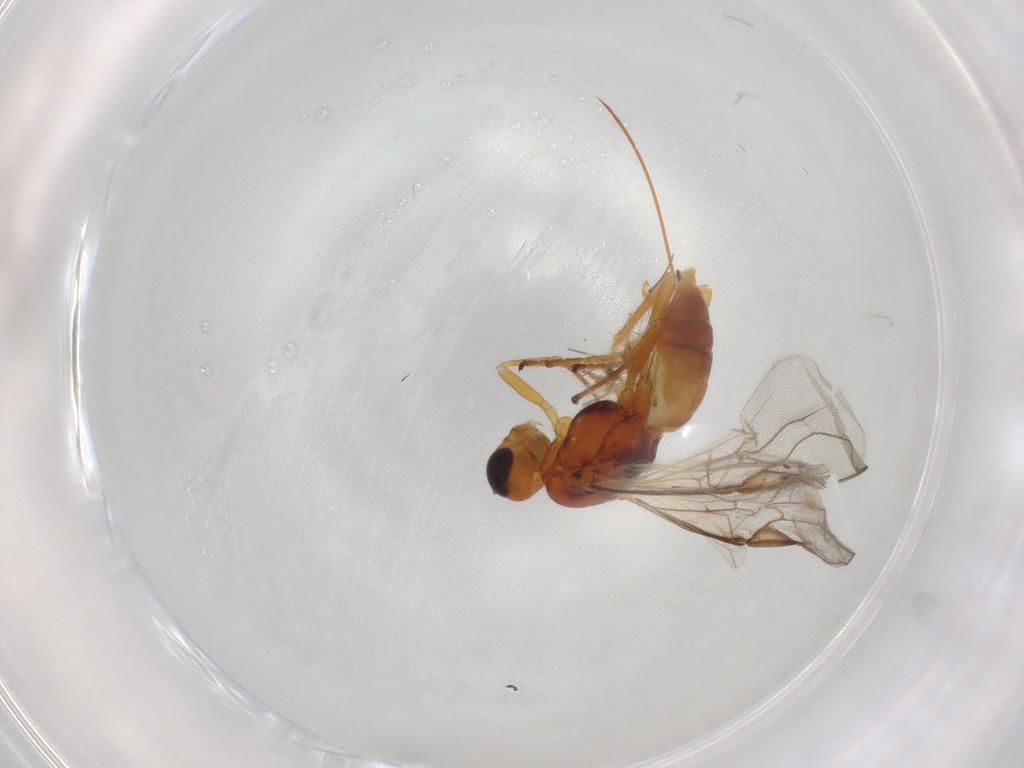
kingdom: Animalia
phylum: Arthropoda
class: Insecta
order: Hymenoptera
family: Braconidae
